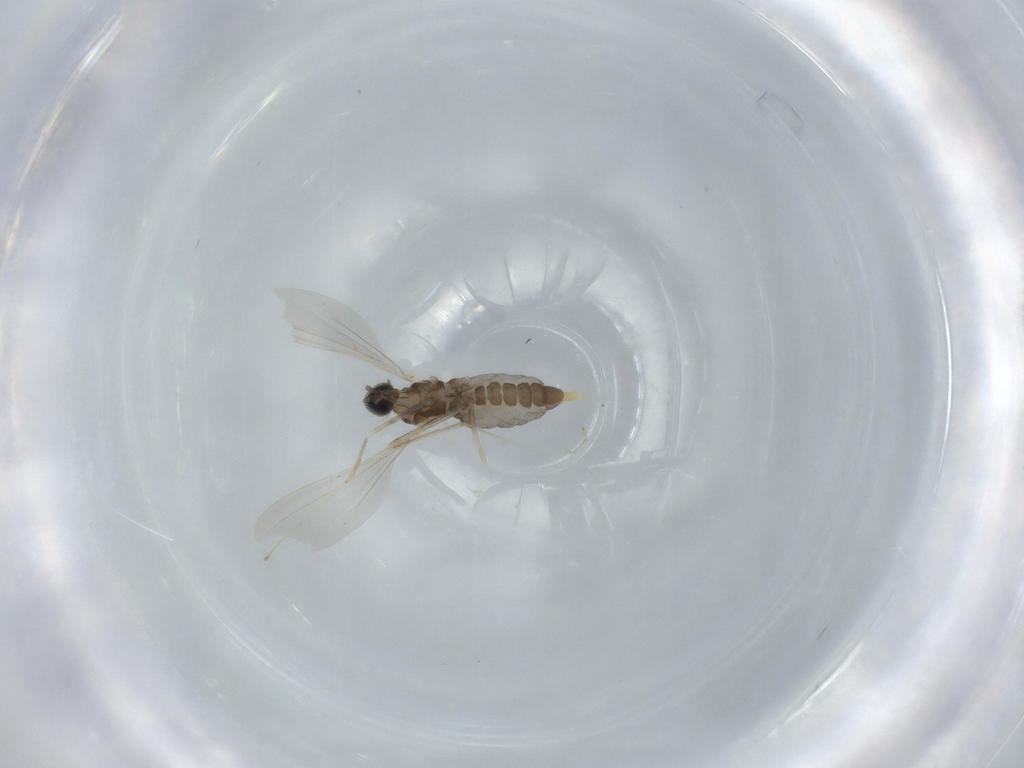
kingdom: Animalia
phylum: Arthropoda
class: Insecta
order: Diptera
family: Cecidomyiidae
